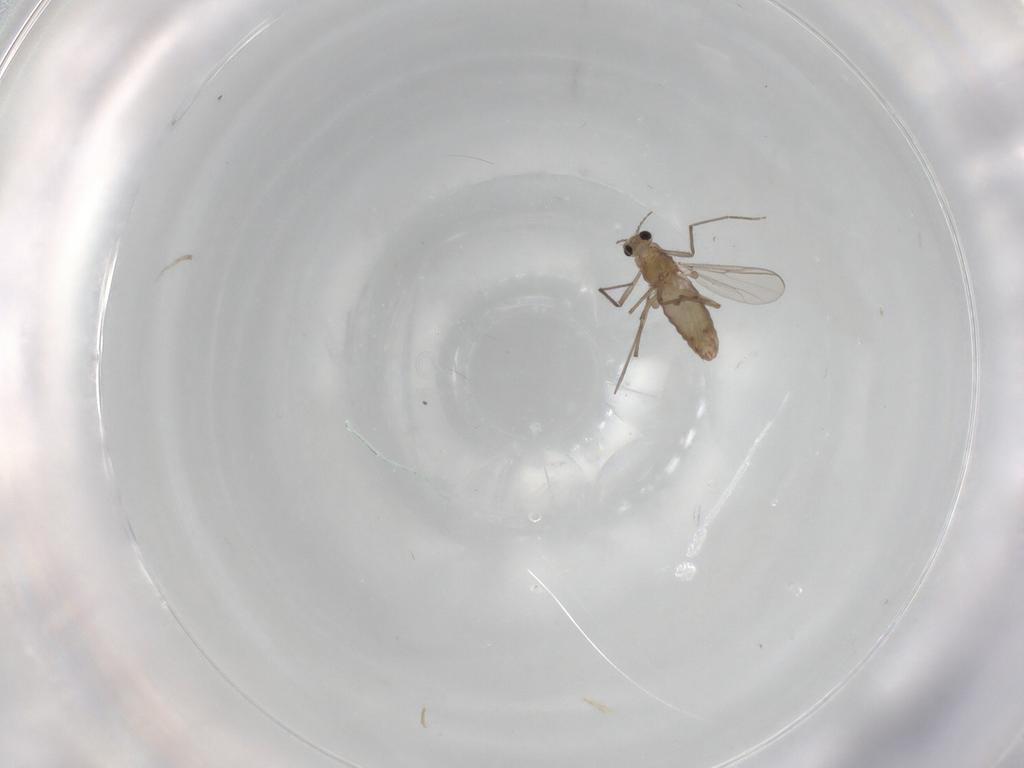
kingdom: Animalia
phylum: Arthropoda
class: Insecta
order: Diptera
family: Chironomidae
